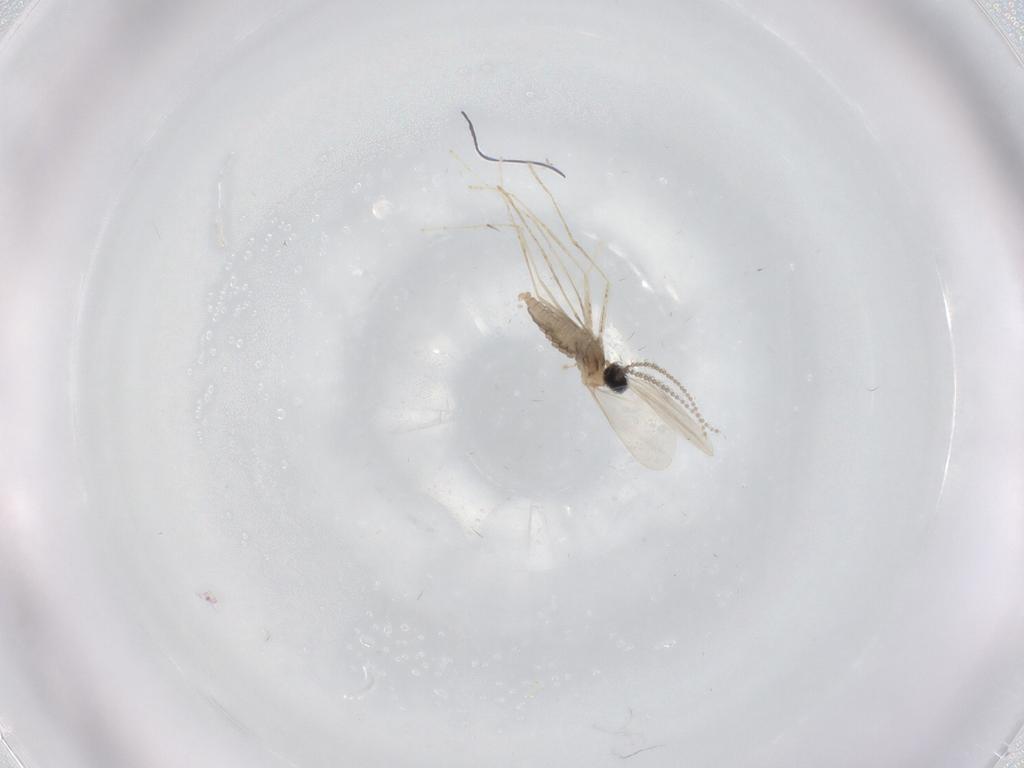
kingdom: Animalia
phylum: Arthropoda
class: Insecta
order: Diptera
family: Cecidomyiidae
